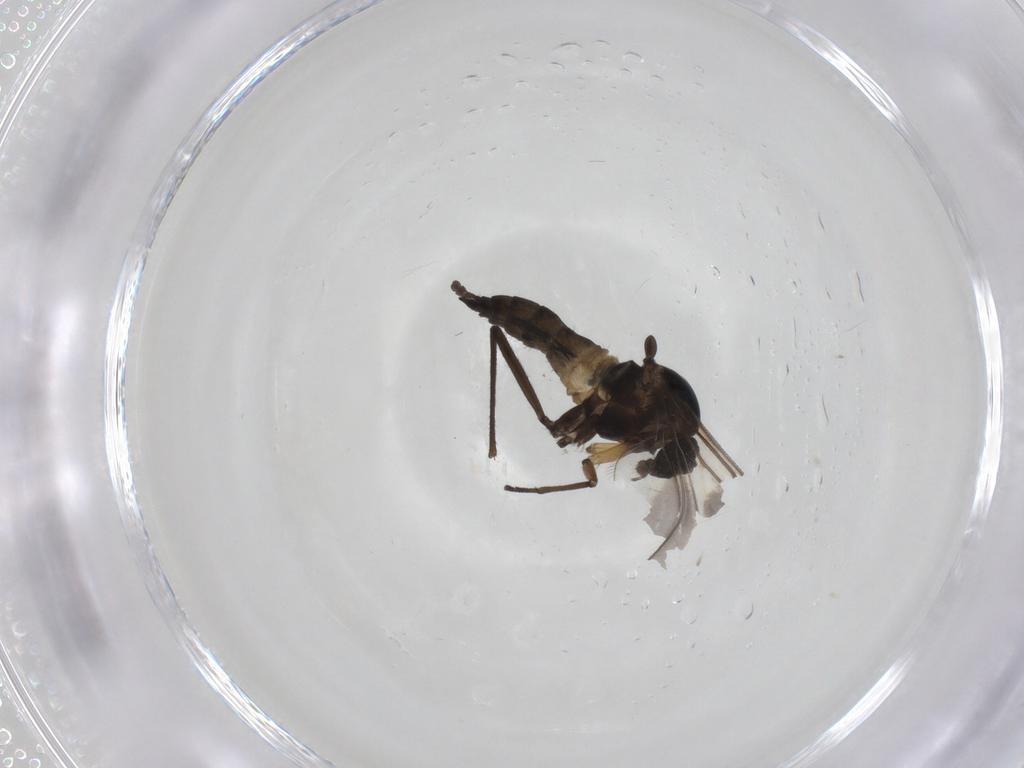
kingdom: Animalia
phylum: Arthropoda
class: Insecta
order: Diptera
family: Sciaridae
